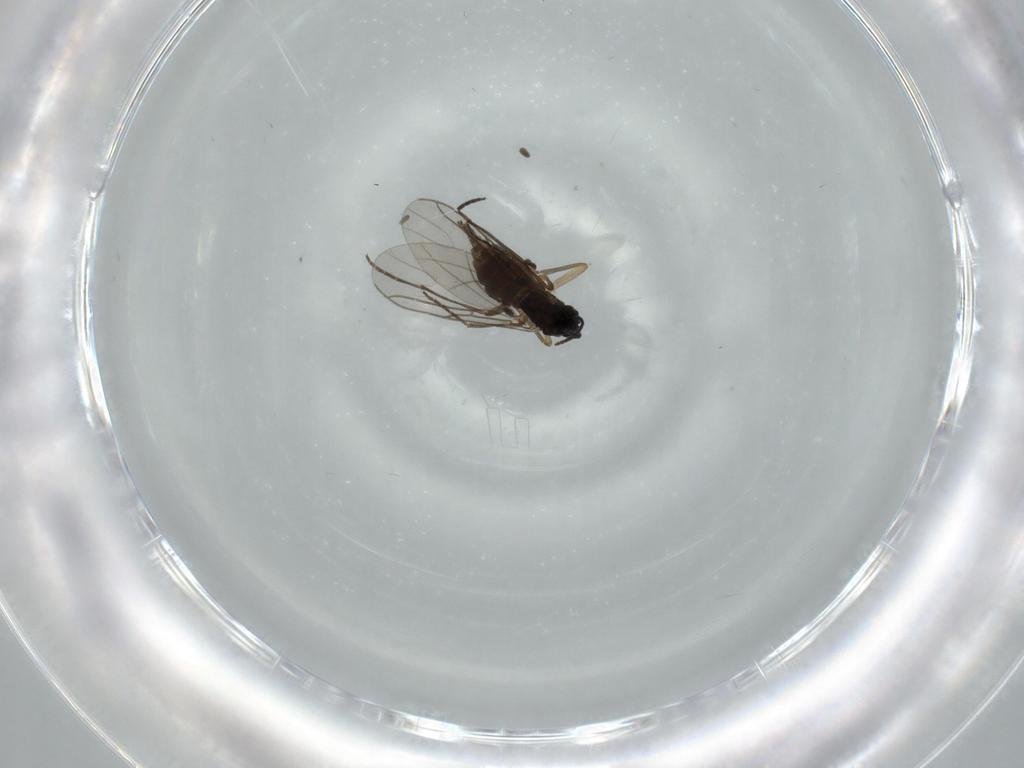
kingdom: Animalia
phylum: Arthropoda
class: Insecta
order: Diptera
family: Sciaridae
